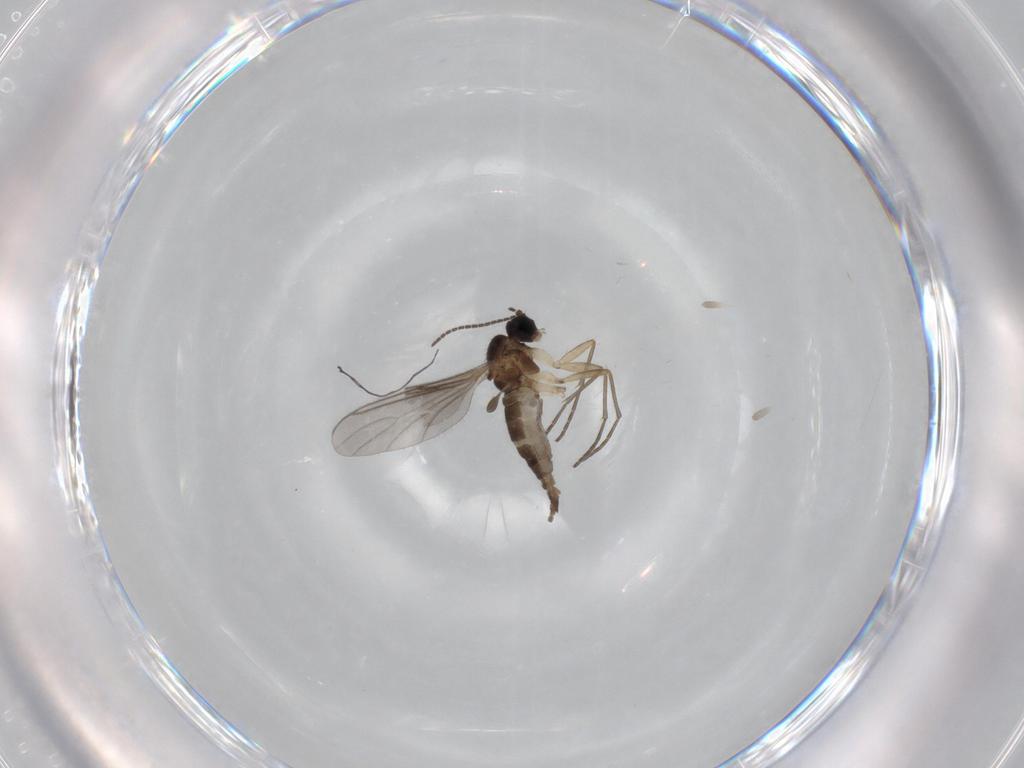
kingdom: Animalia
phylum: Arthropoda
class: Insecta
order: Diptera
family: Sciaridae
